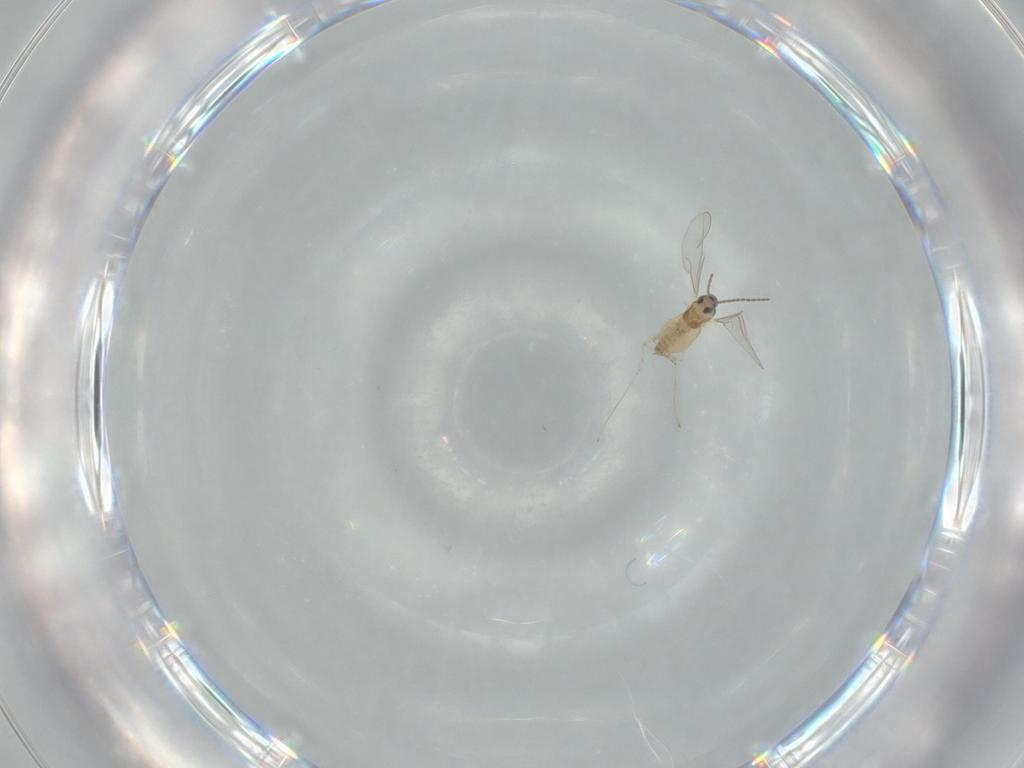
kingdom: Animalia
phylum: Arthropoda
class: Insecta
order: Diptera
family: Cecidomyiidae
